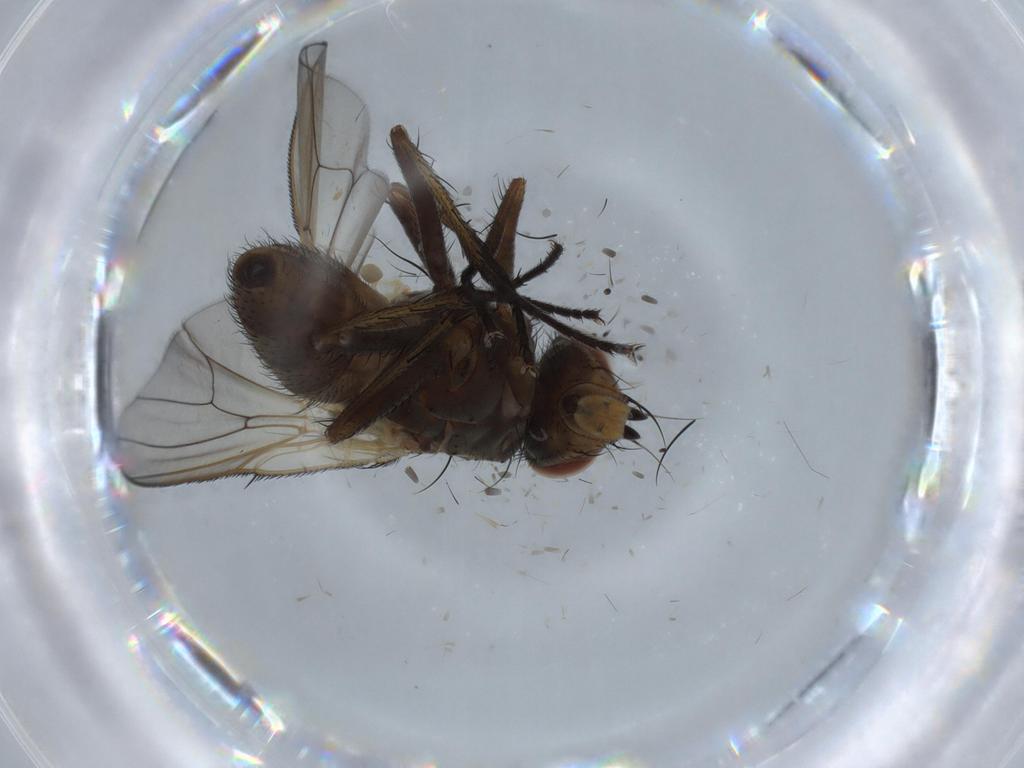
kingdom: Animalia
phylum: Arthropoda
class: Insecta
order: Diptera
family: Anthomyiidae
